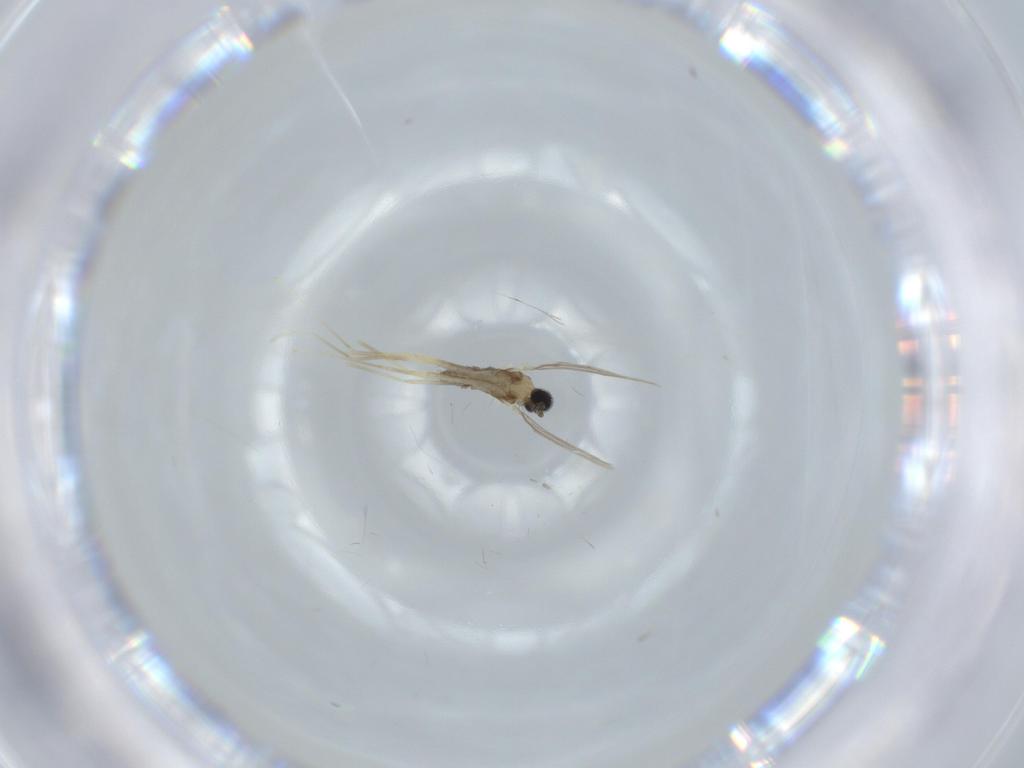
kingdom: Animalia
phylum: Arthropoda
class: Insecta
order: Diptera
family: Cecidomyiidae
